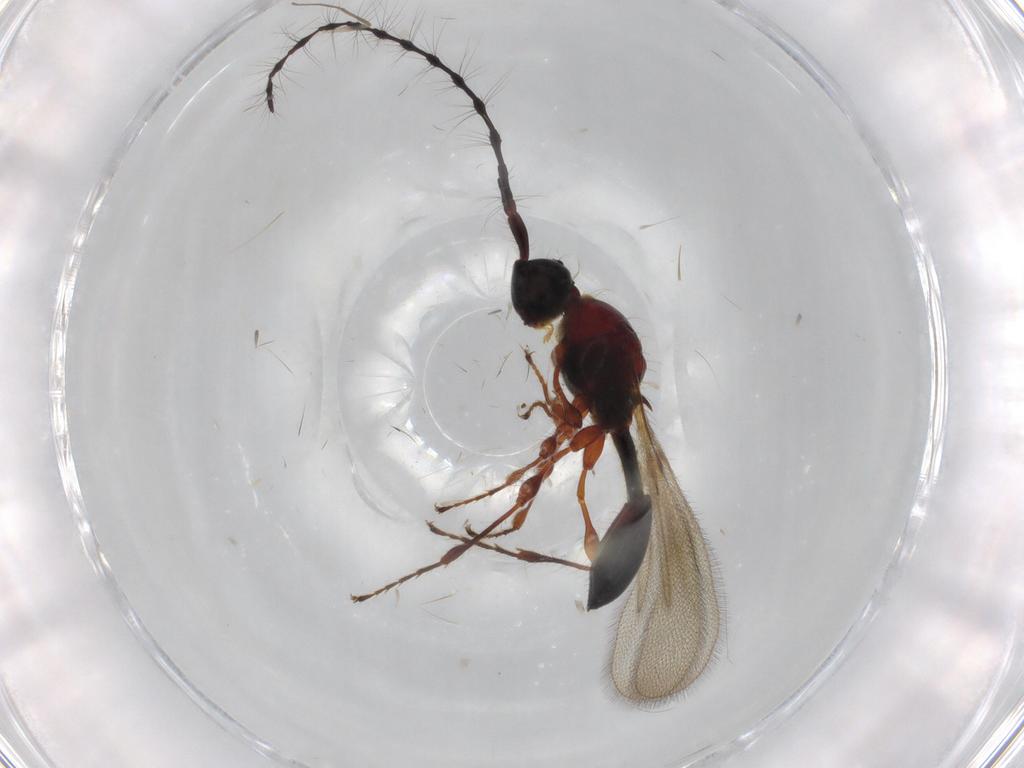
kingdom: Animalia
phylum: Arthropoda
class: Insecta
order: Hymenoptera
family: Diapriidae
